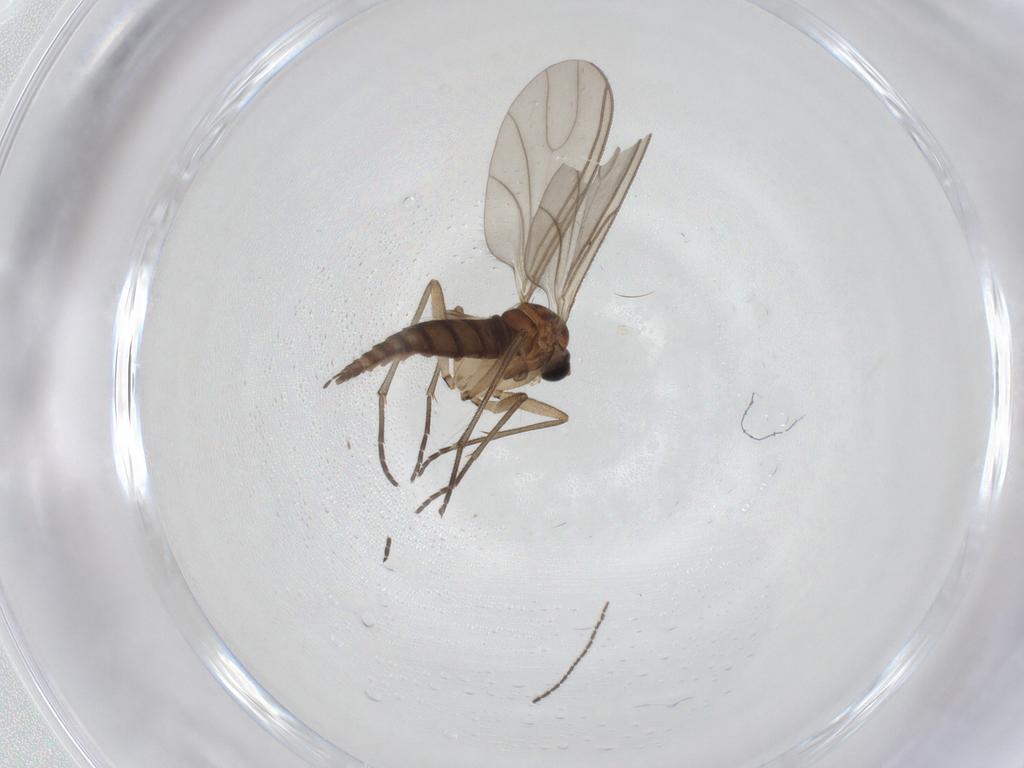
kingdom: Animalia
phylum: Arthropoda
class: Insecta
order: Diptera
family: Sciaridae
